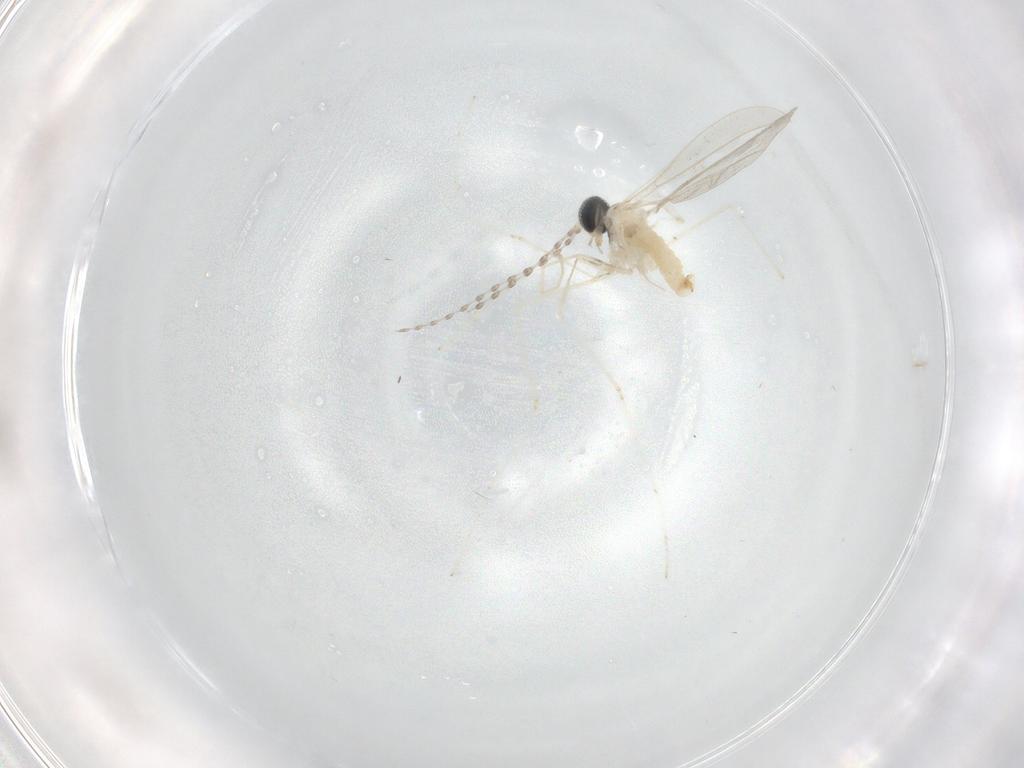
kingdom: Animalia
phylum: Arthropoda
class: Insecta
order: Diptera
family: Cecidomyiidae
